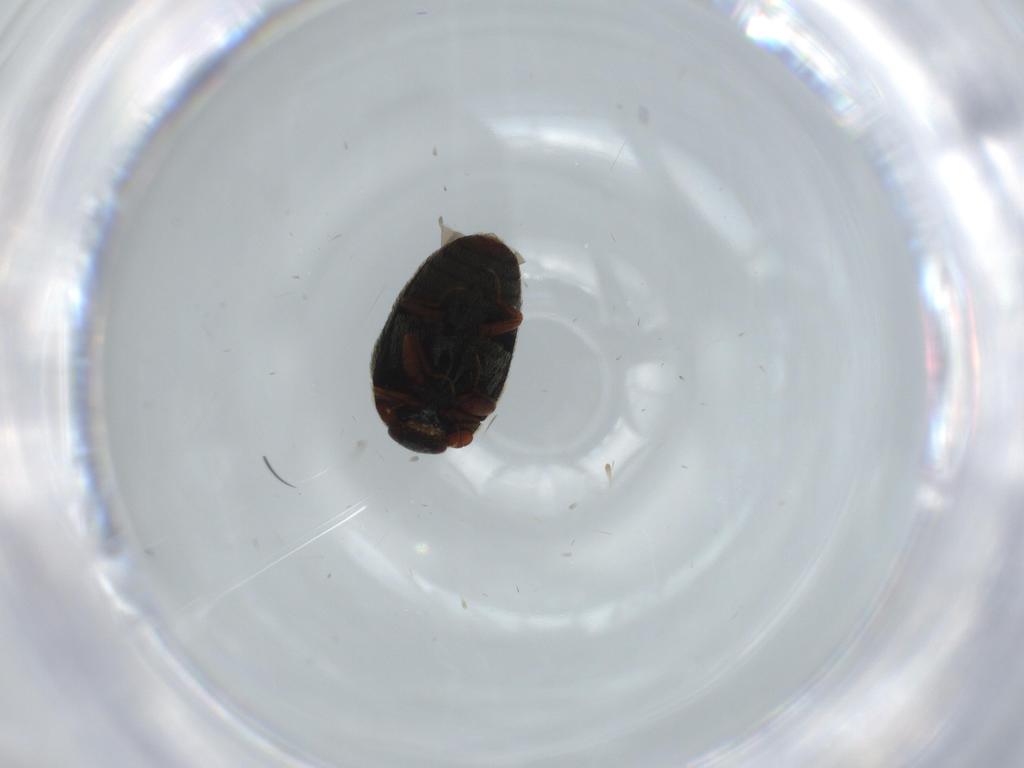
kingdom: Animalia
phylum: Arthropoda
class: Insecta
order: Coleoptera
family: Dermestidae
